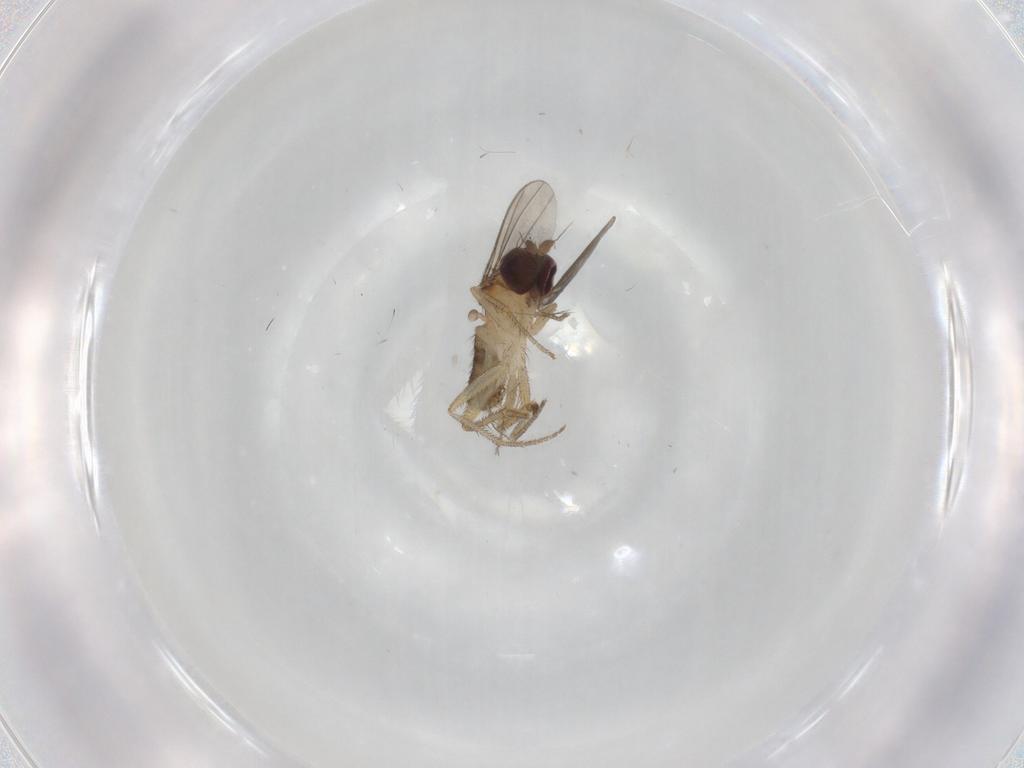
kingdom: Animalia
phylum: Arthropoda
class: Insecta
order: Diptera
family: Dolichopodidae
